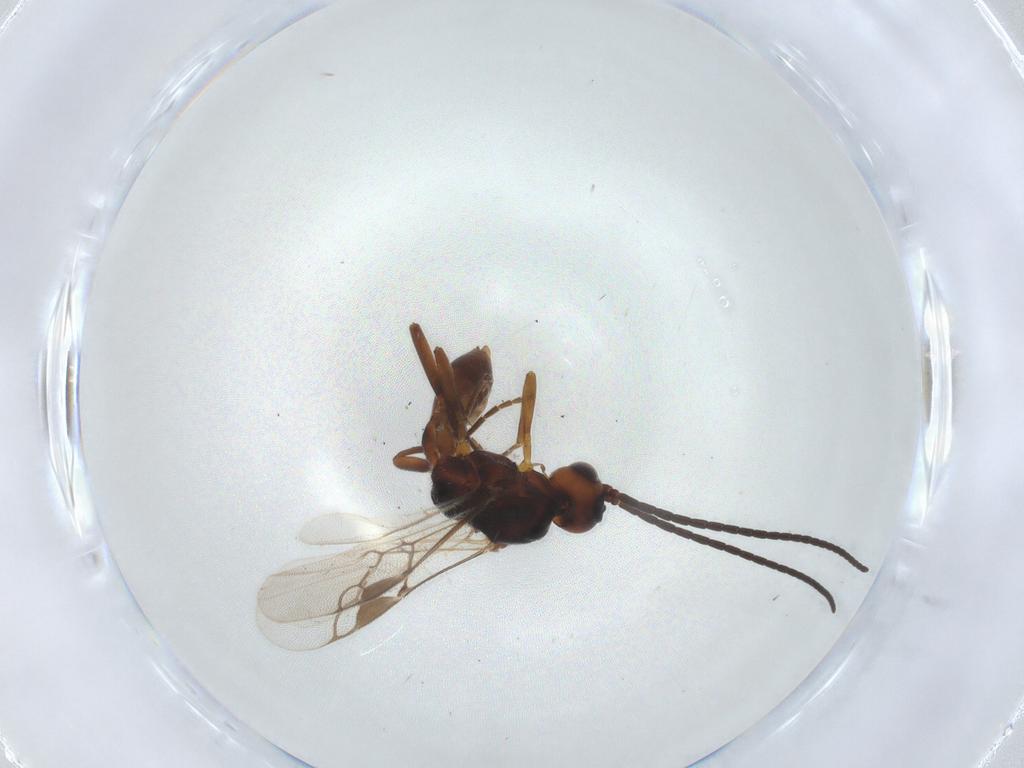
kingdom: Animalia
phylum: Arthropoda
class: Insecta
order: Hymenoptera
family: Braconidae
